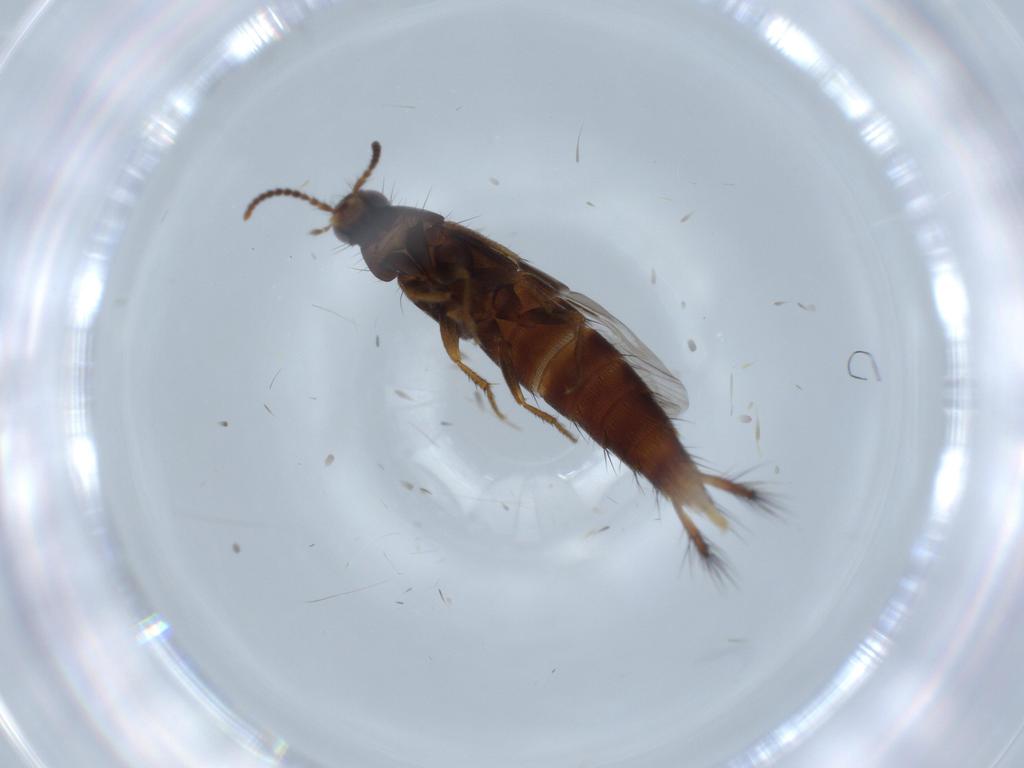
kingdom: Animalia
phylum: Arthropoda
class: Insecta
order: Coleoptera
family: Staphylinidae
